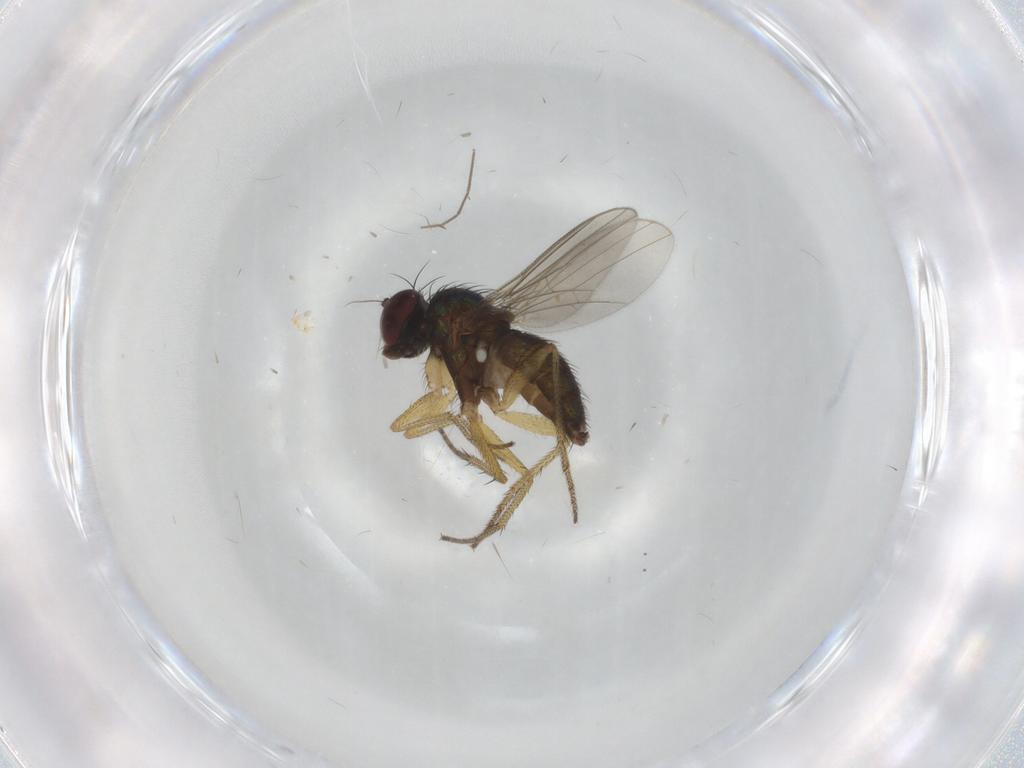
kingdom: Animalia
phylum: Arthropoda
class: Insecta
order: Diptera
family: Dolichopodidae
